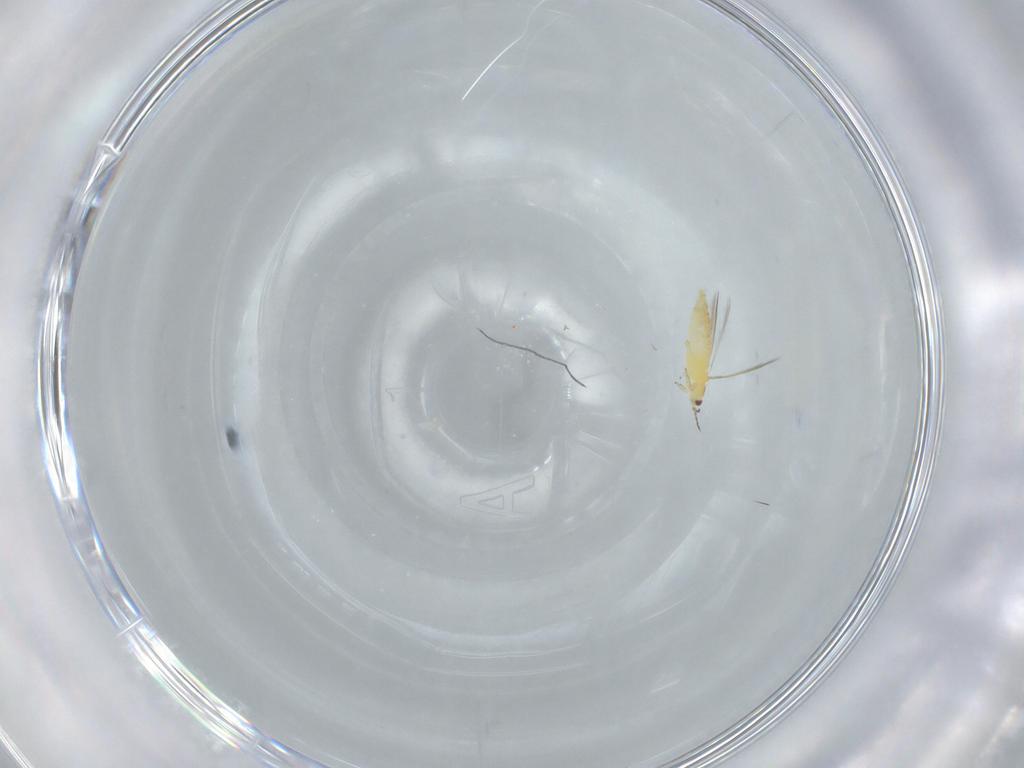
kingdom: Animalia
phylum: Arthropoda
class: Insecta
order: Thysanoptera
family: Thripidae
